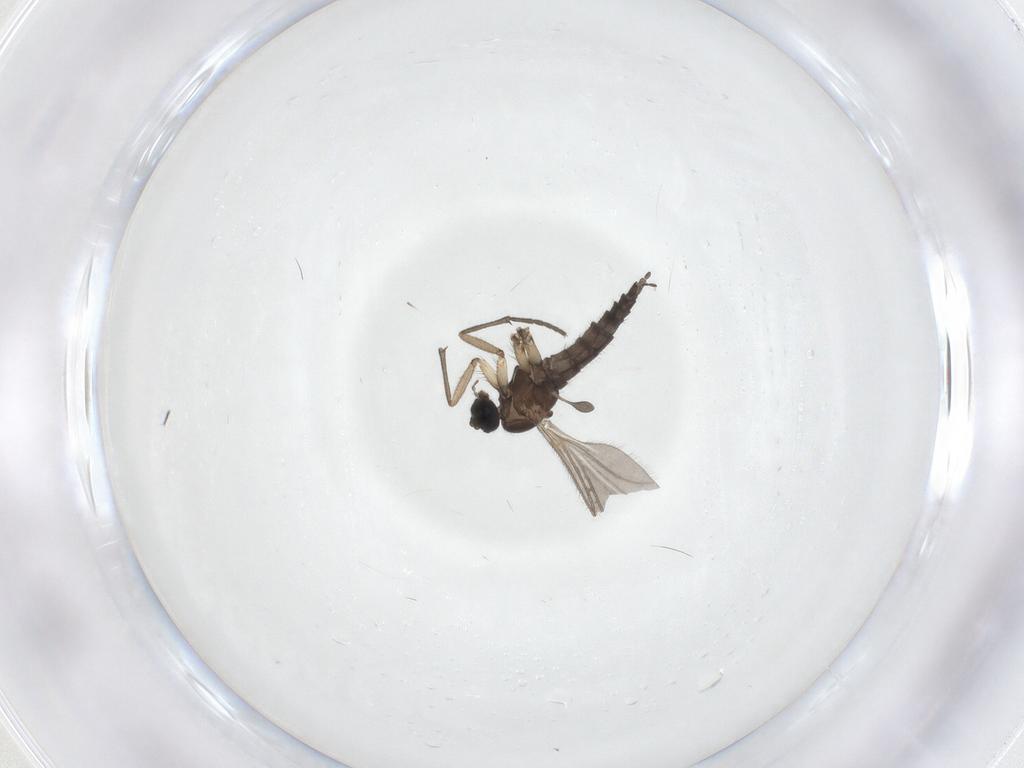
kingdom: Animalia
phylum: Arthropoda
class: Insecta
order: Diptera
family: Sciaridae
